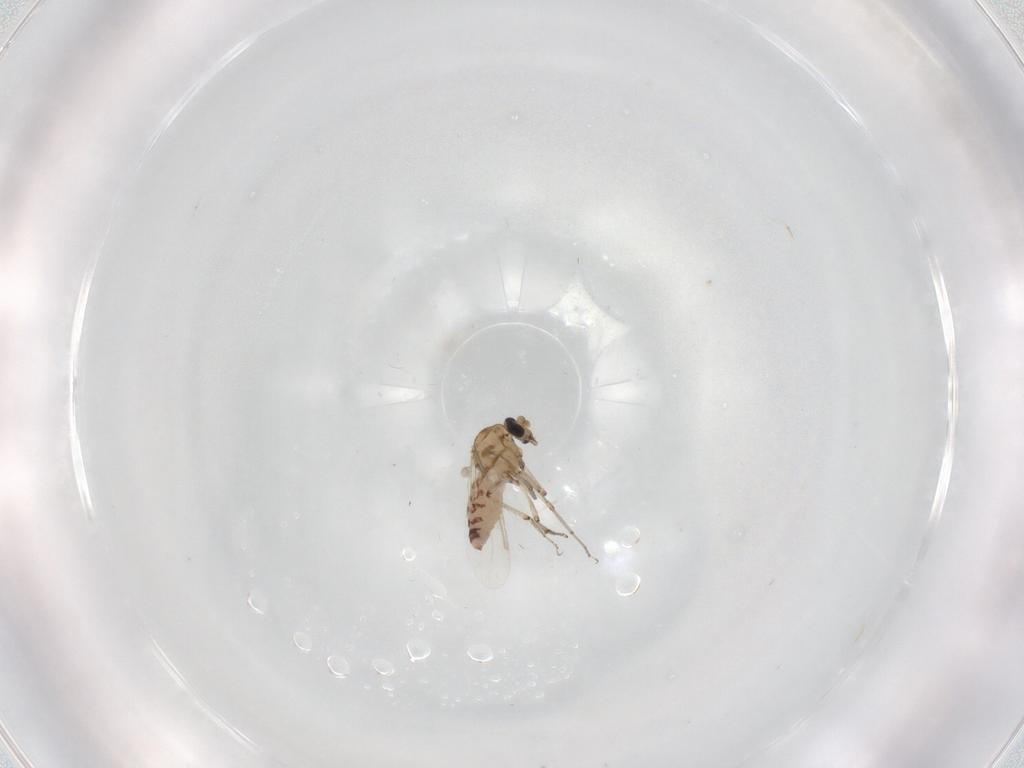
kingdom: Animalia
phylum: Arthropoda
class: Insecta
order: Diptera
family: Ceratopogonidae
